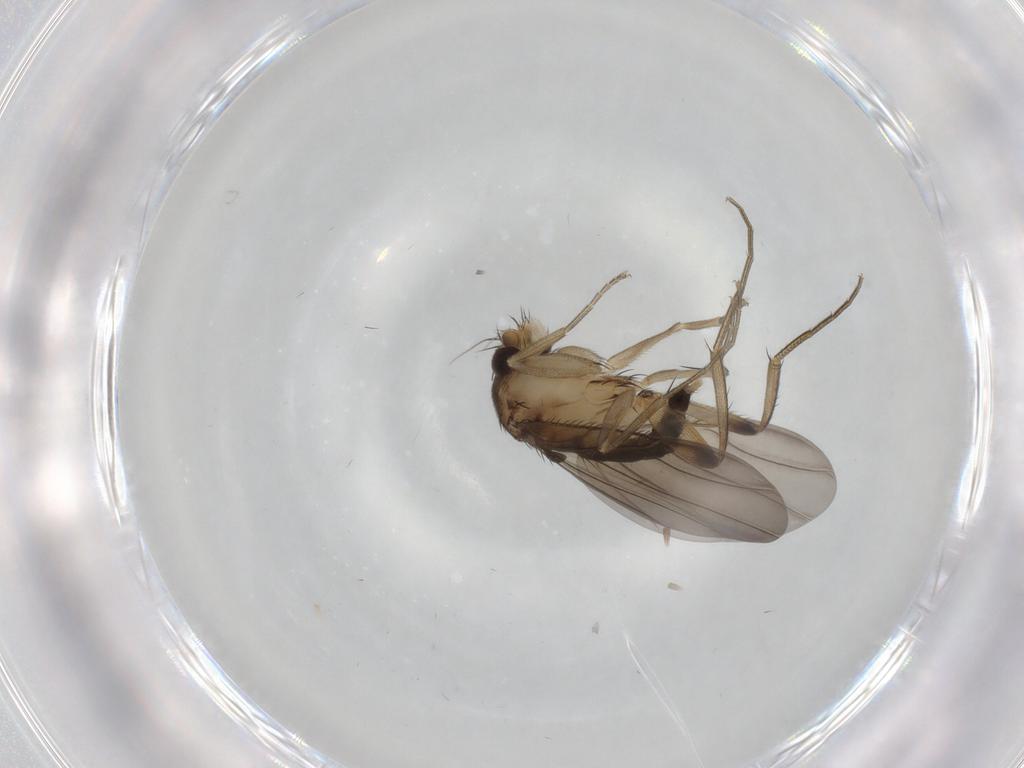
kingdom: Animalia
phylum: Arthropoda
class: Insecta
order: Diptera
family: Phoridae
